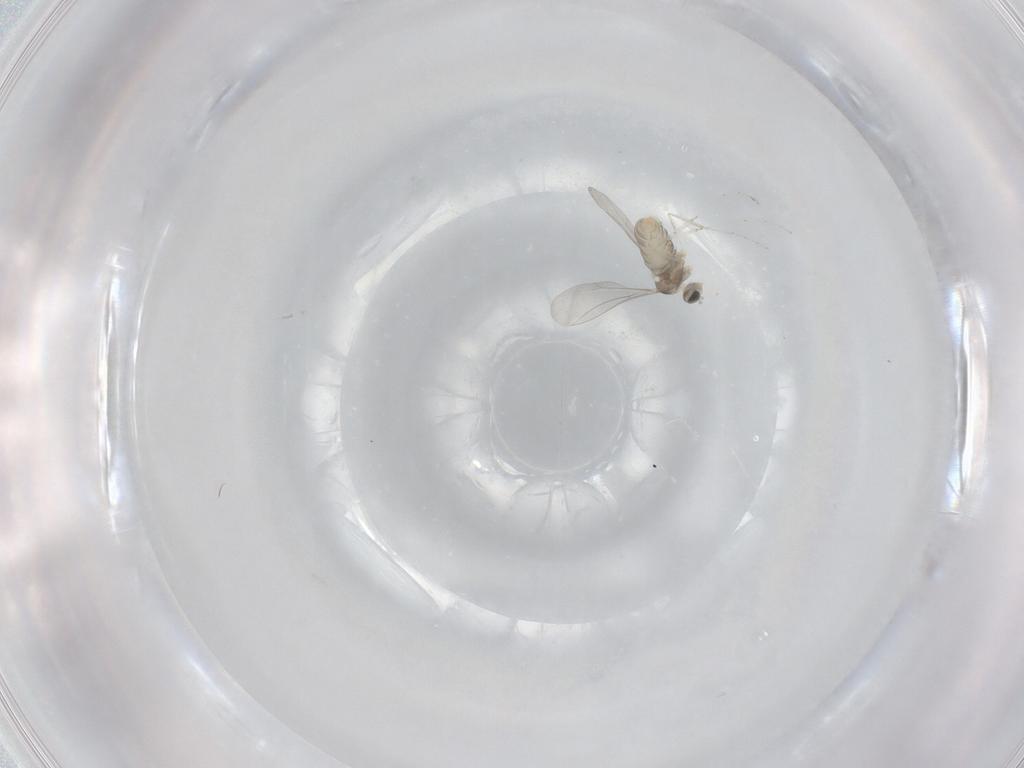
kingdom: Animalia
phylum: Arthropoda
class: Insecta
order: Diptera
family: Cecidomyiidae
